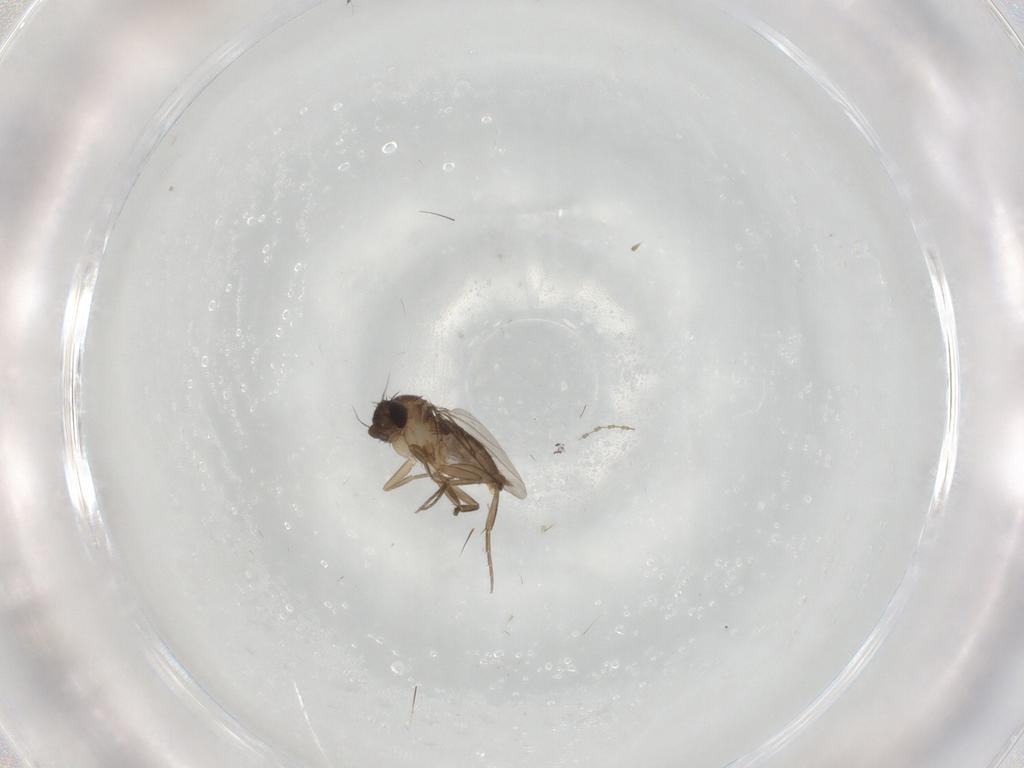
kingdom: Animalia
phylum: Arthropoda
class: Insecta
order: Diptera
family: Phoridae
